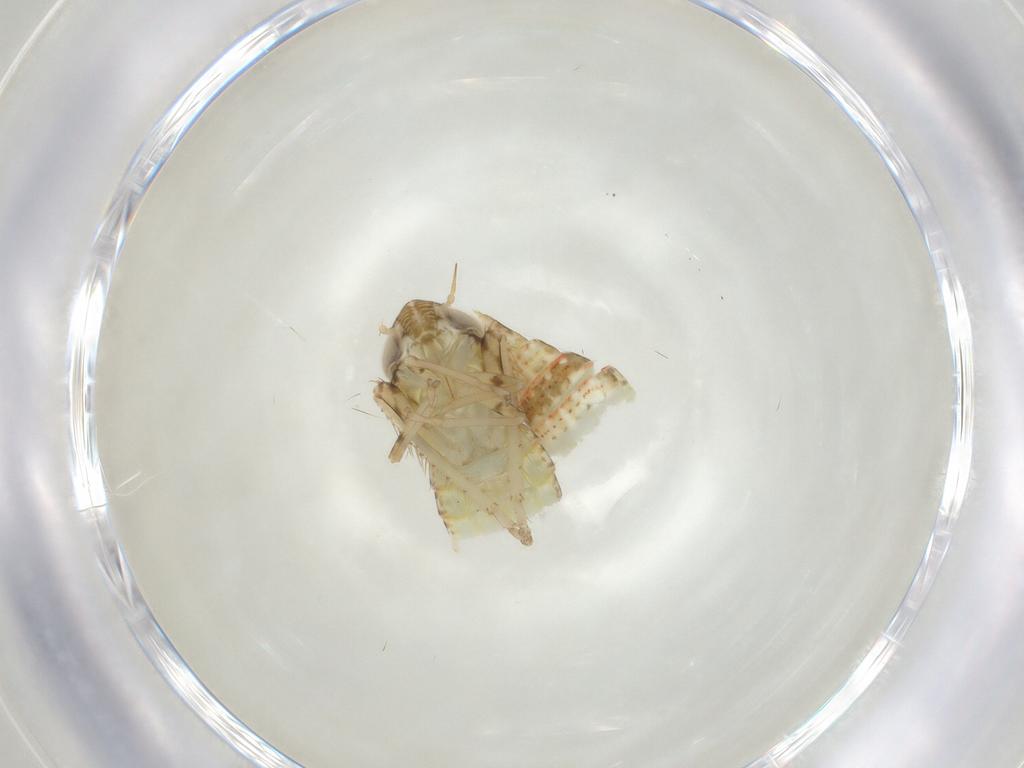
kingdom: Animalia
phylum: Arthropoda
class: Insecta
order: Hemiptera
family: Cicadellidae
